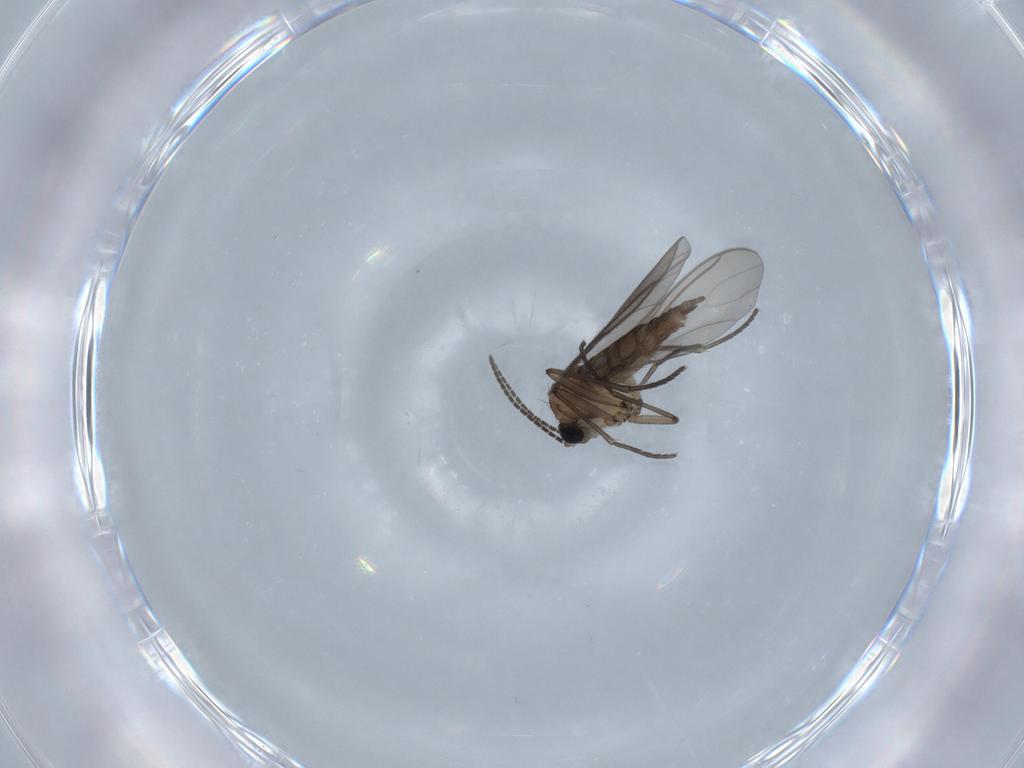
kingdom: Animalia
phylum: Arthropoda
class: Insecta
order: Diptera
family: Sciaridae
